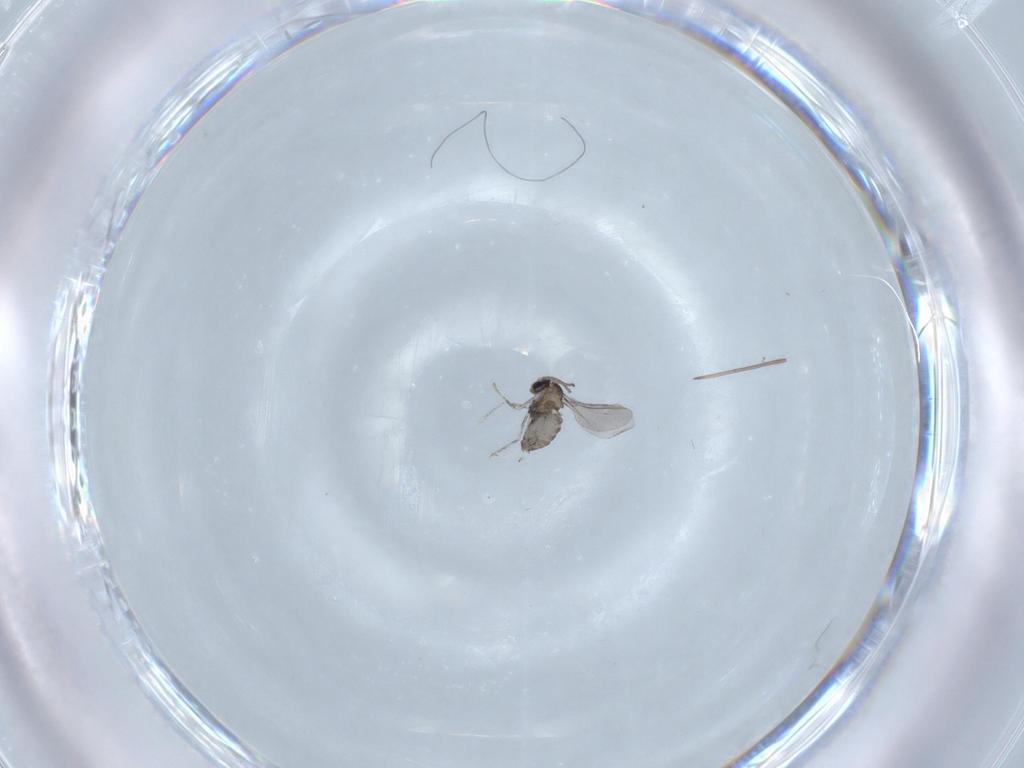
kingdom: Animalia
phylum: Arthropoda
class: Insecta
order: Diptera
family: Cecidomyiidae
